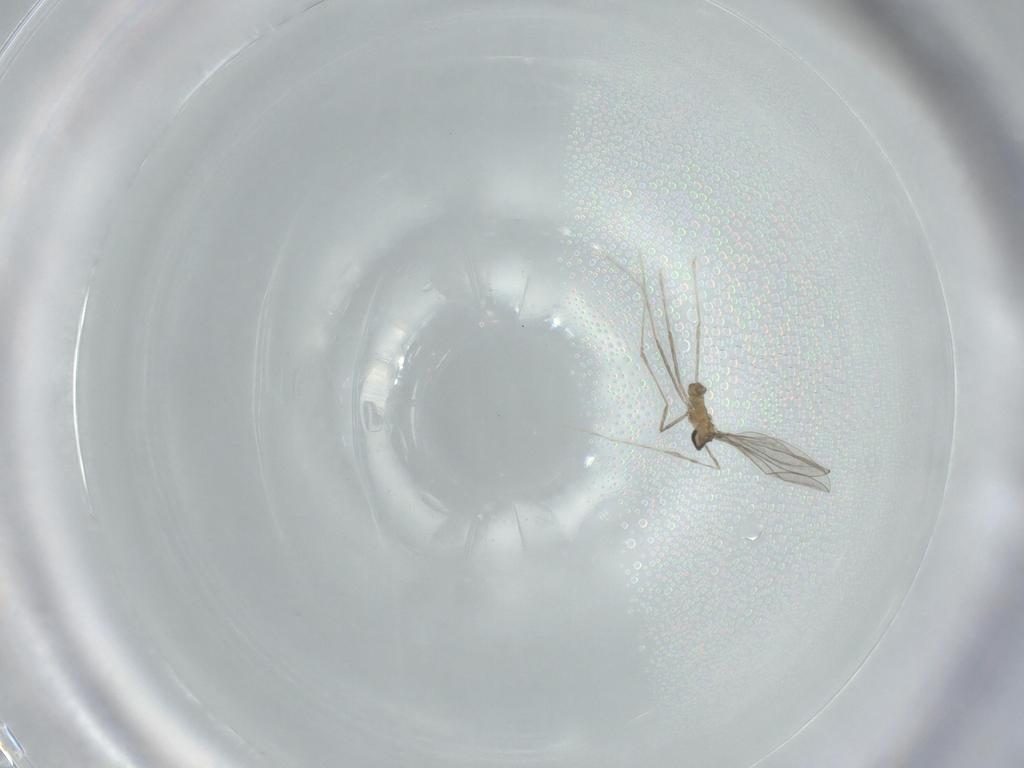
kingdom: Animalia
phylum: Arthropoda
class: Insecta
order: Diptera
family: Cecidomyiidae
